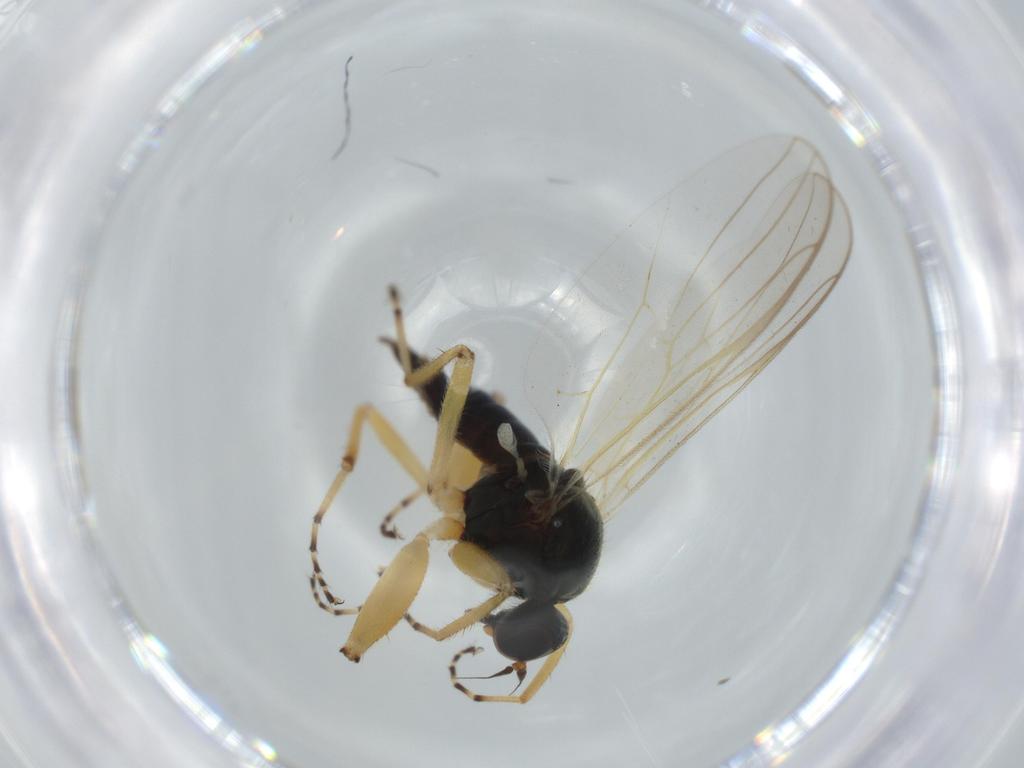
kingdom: Animalia
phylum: Arthropoda
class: Insecta
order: Diptera
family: Hybotidae
